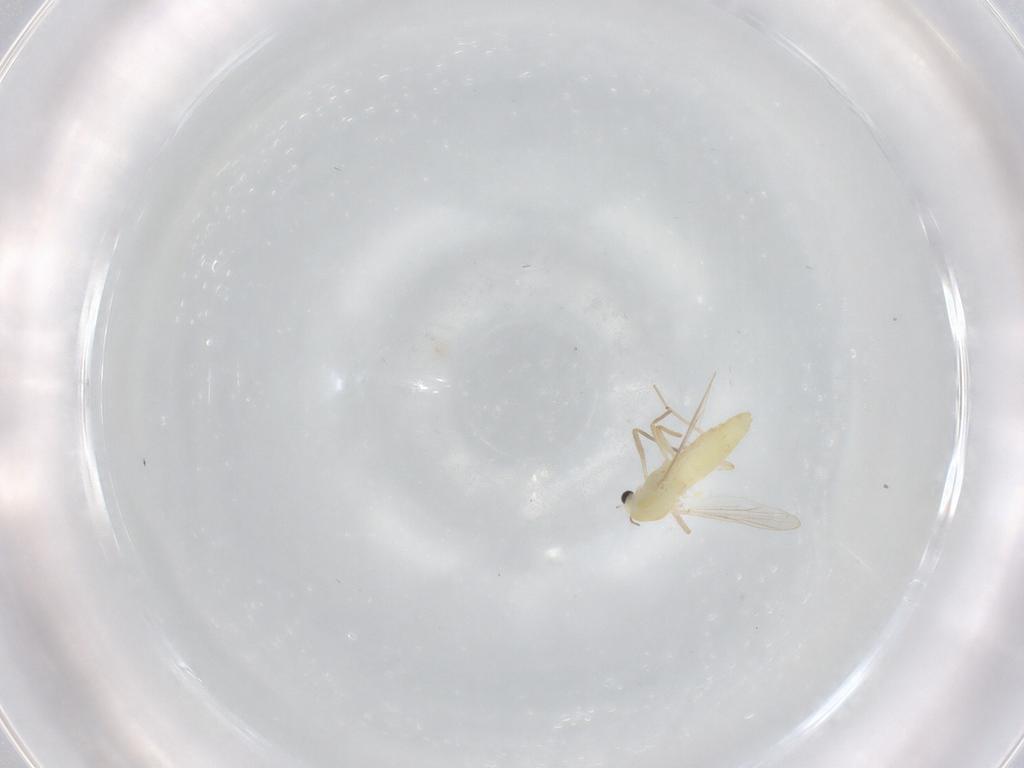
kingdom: Animalia
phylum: Arthropoda
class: Insecta
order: Diptera
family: Chironomidae
